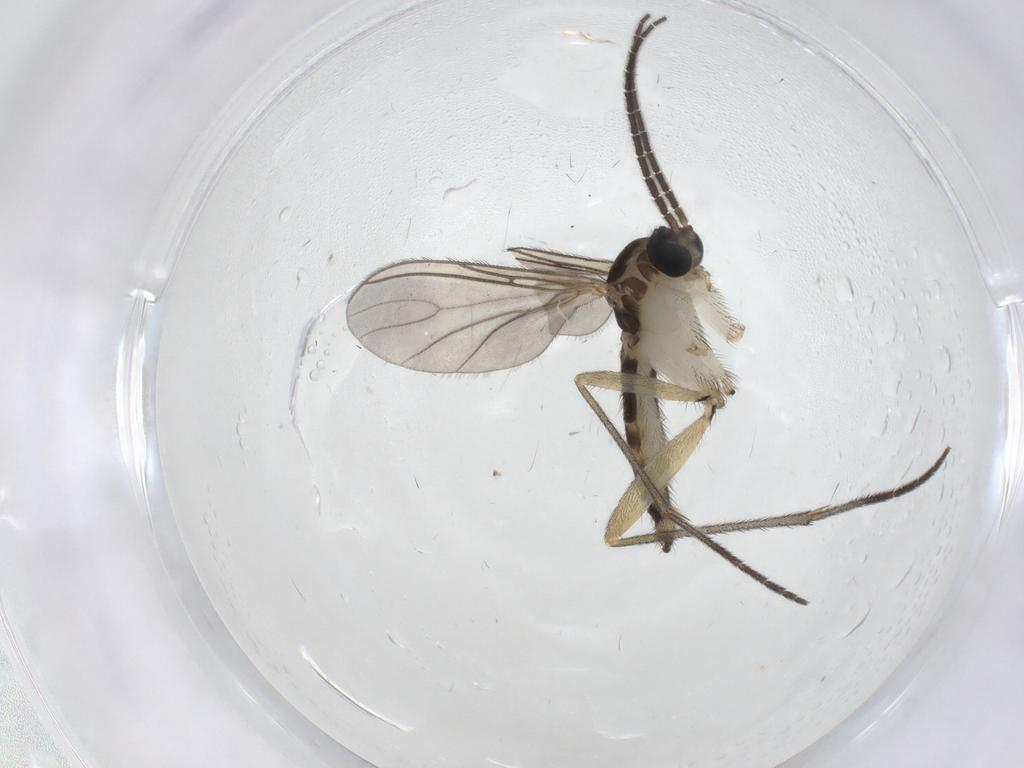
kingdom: Animalia
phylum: Arthropoda
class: Insecta
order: Diptera
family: Sciaridae
